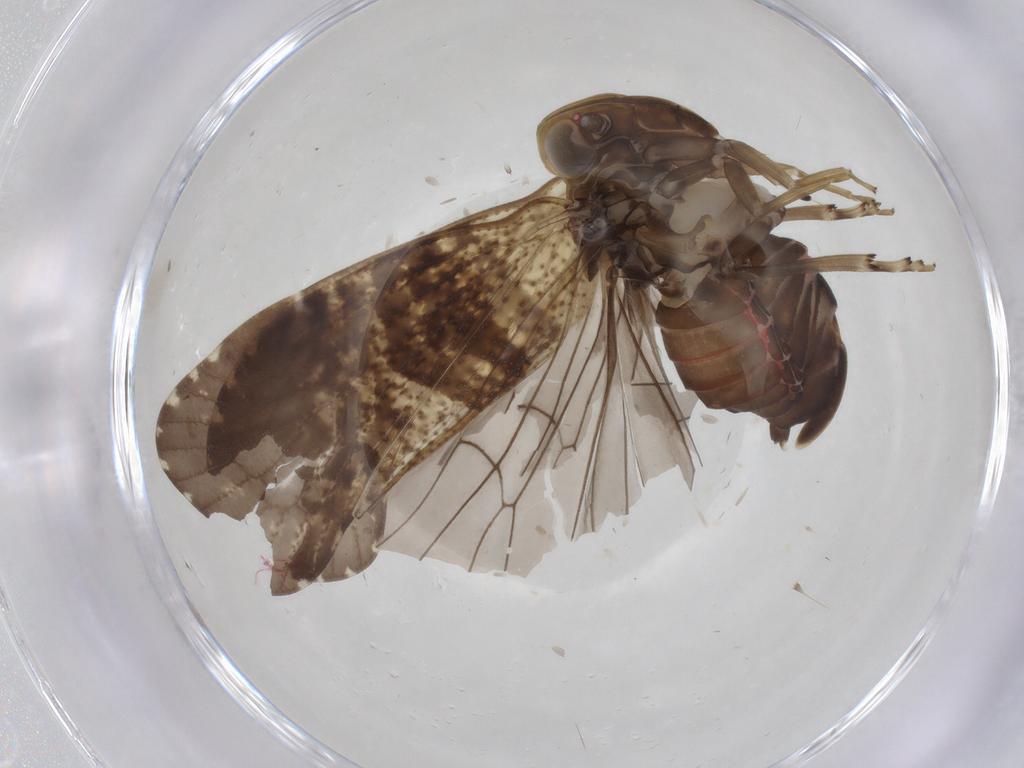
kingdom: Animalia
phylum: Arthropoda
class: Insecta
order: Hemiptera
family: Cixiidae
